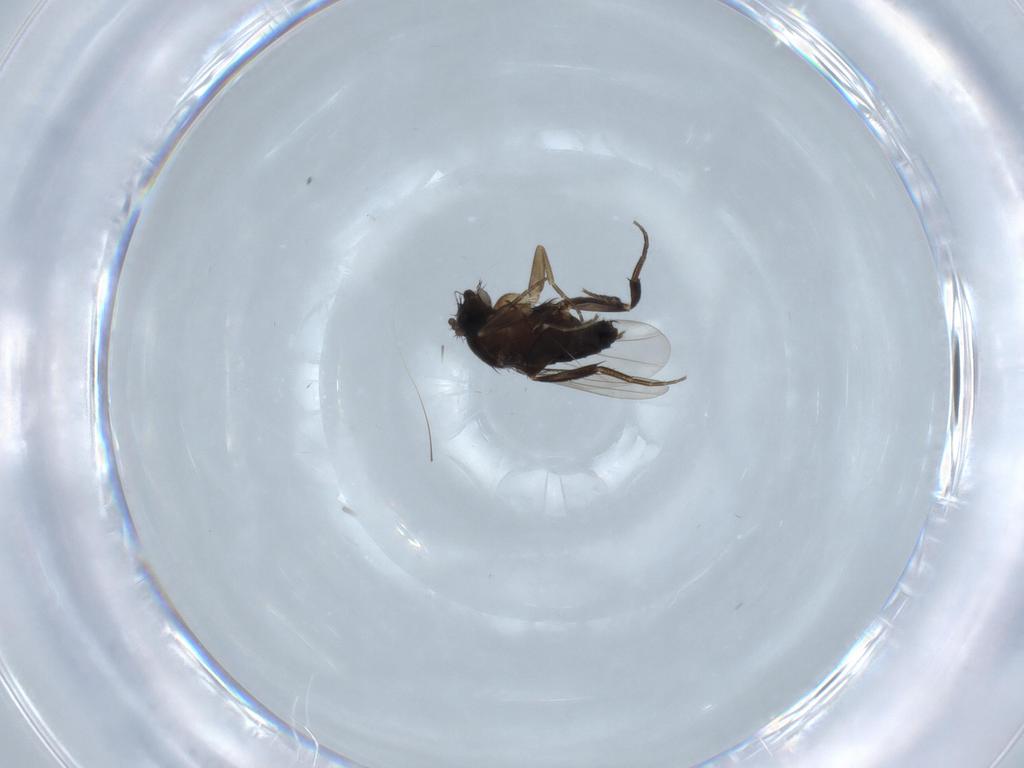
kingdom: Animalia
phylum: Arthropoda
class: Insecta
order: Diptera
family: Phoridae
